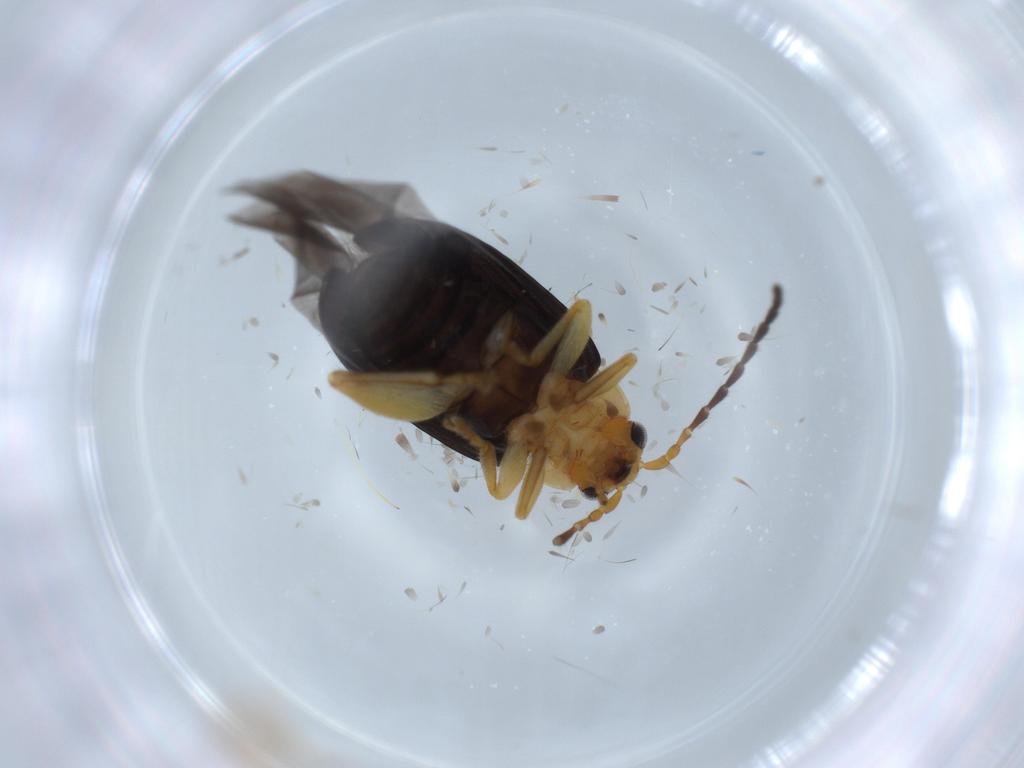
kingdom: Animalia
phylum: Arthropoda
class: Insecta
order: Coleoptera
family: Chrysomelidae
